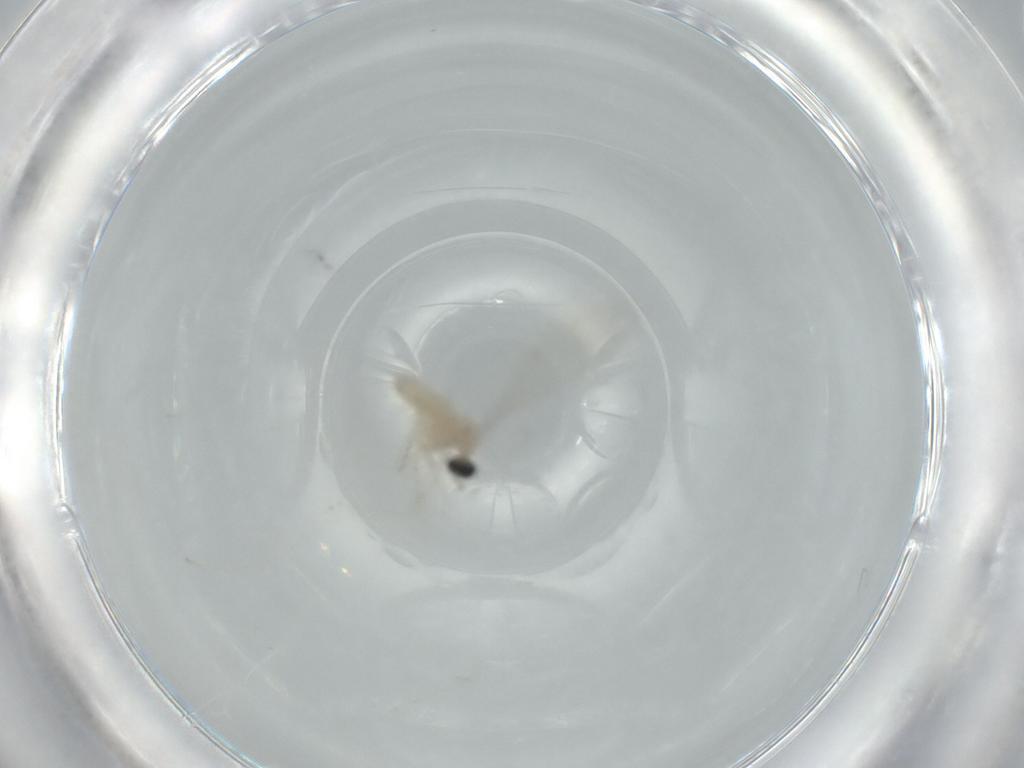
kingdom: Animalia
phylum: Arthropoda
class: Insecta
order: Diptera
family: Cecidomyiidae
